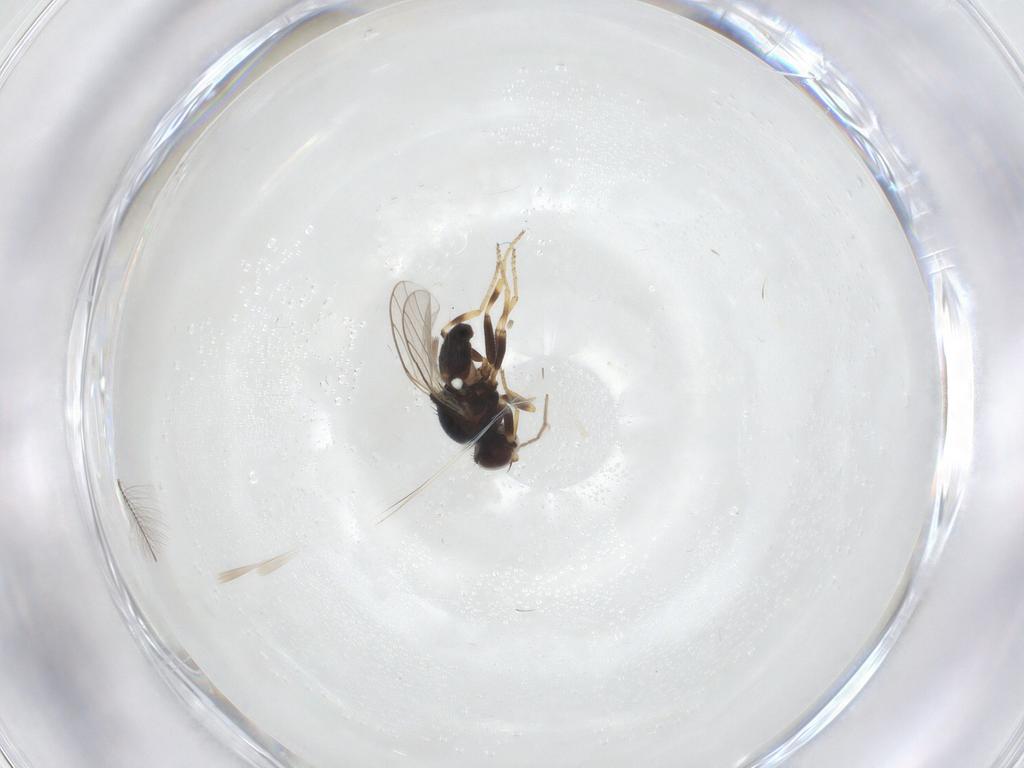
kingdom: Animalia
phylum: Arthropoda
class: Insecta
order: Diptera
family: Chloropidae
